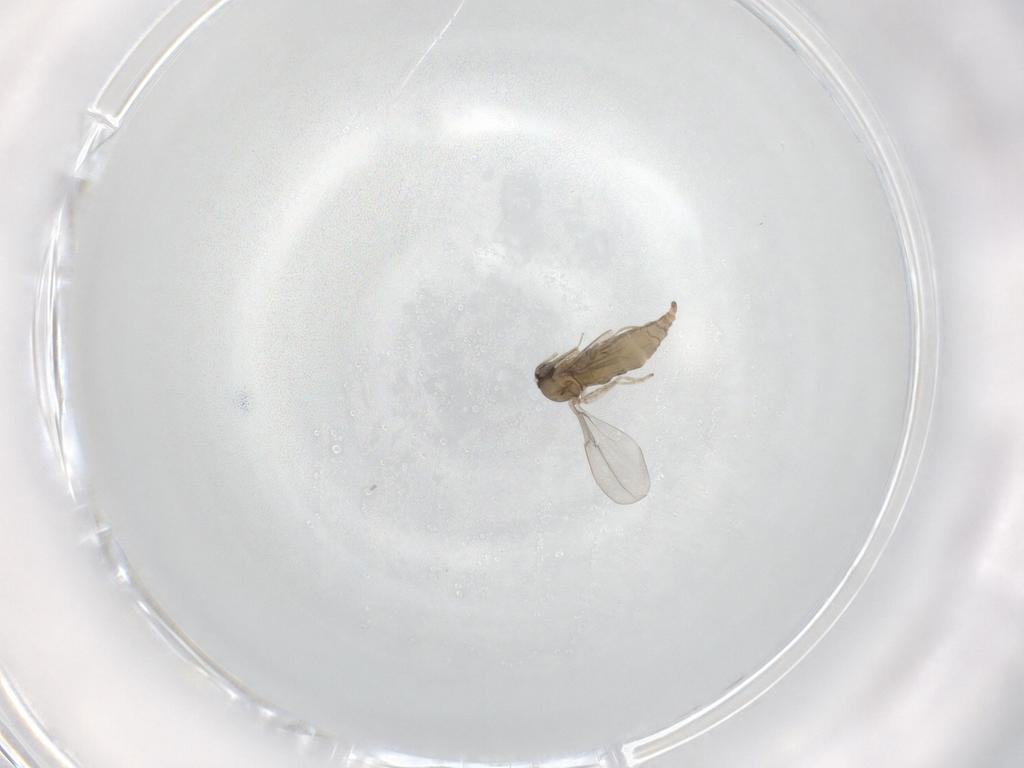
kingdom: Animalia
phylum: Arthropoda
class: Insecta
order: Diptera
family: Cecidomyiidae
